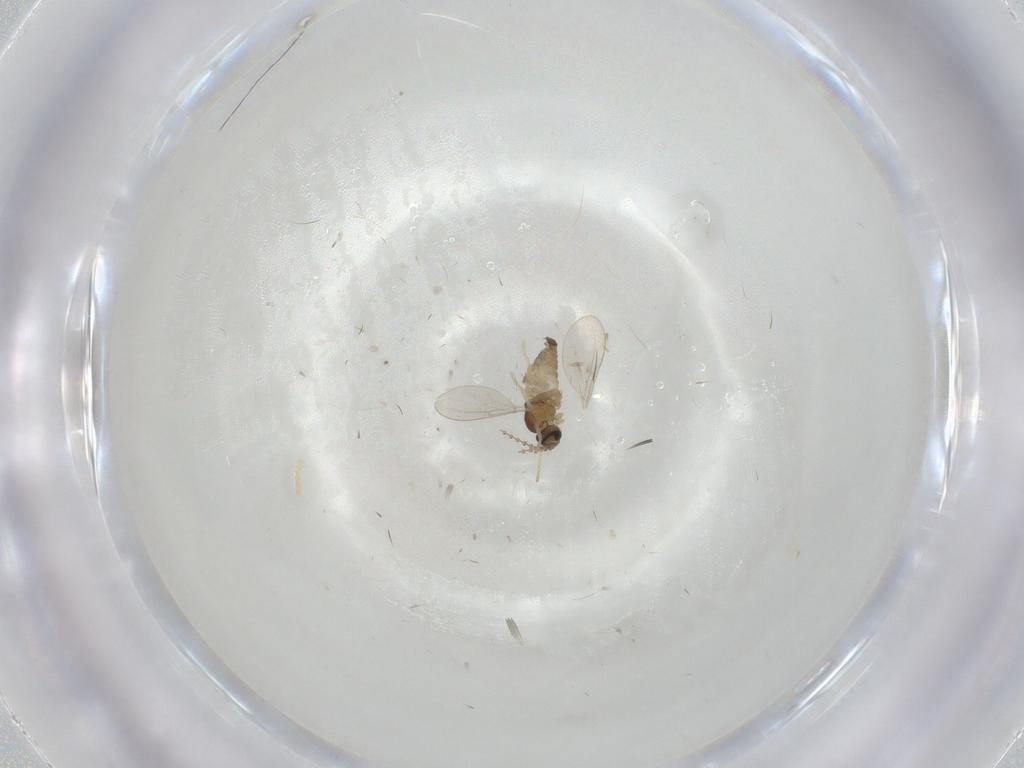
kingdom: Animalia
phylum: Arthropoda
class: Insecta
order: Diptera
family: Cecidomyiidae
